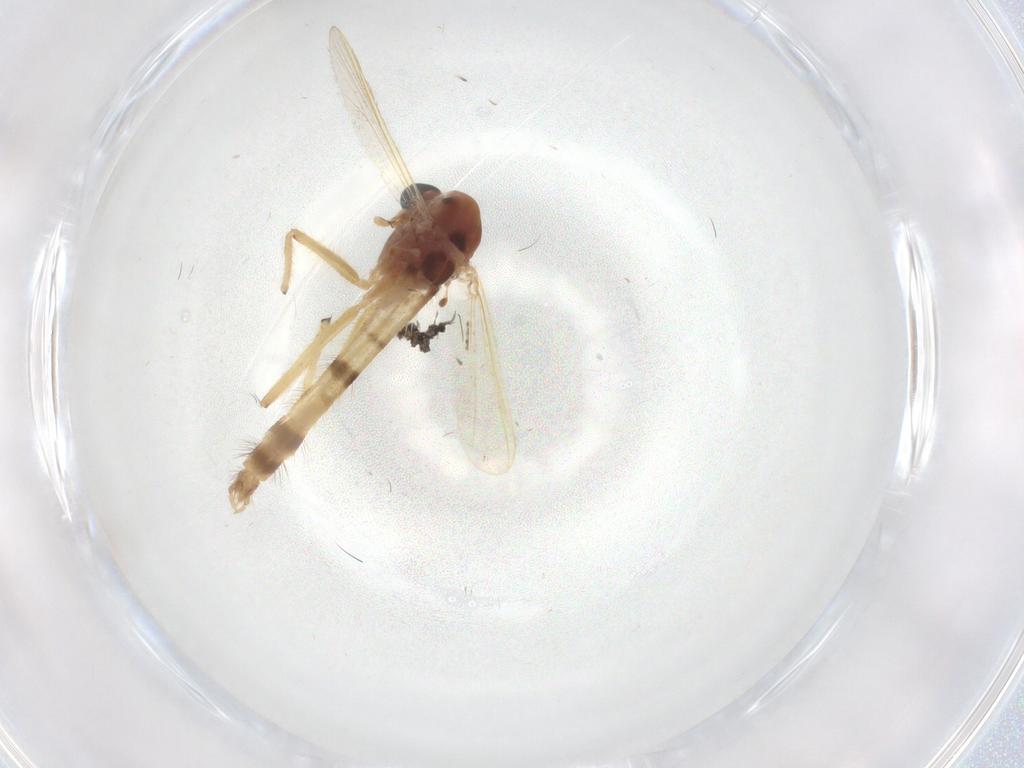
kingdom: Animalia
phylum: Arthropoda
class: Insecta
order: Diptera
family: Chironomidae
